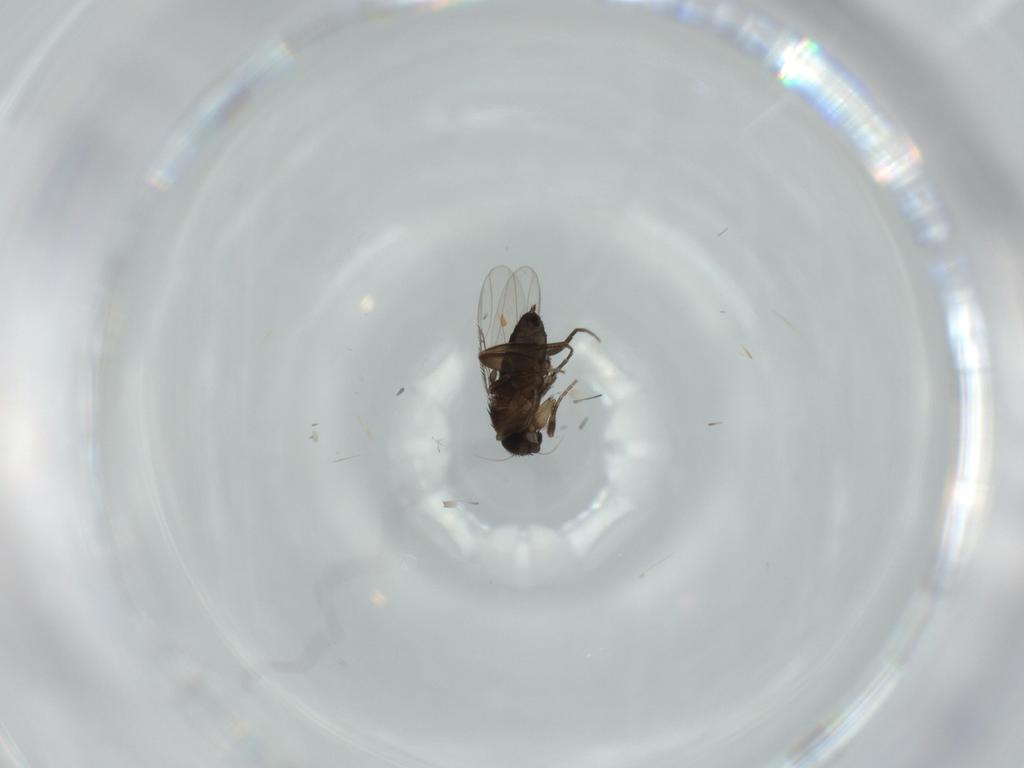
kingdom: Animalia
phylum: Arthropoda
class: Insecta
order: Diptera
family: Phoridae
